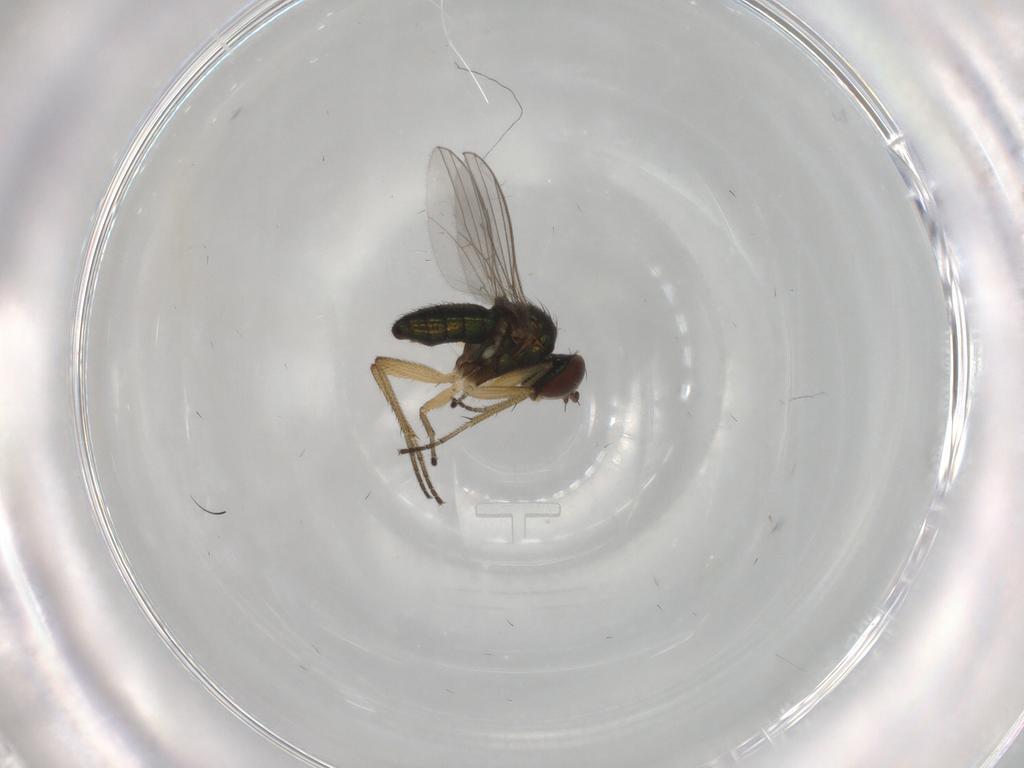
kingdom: Animalia
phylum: Arthropoda
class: Insecta
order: Diptera
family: Dolichopodidae
